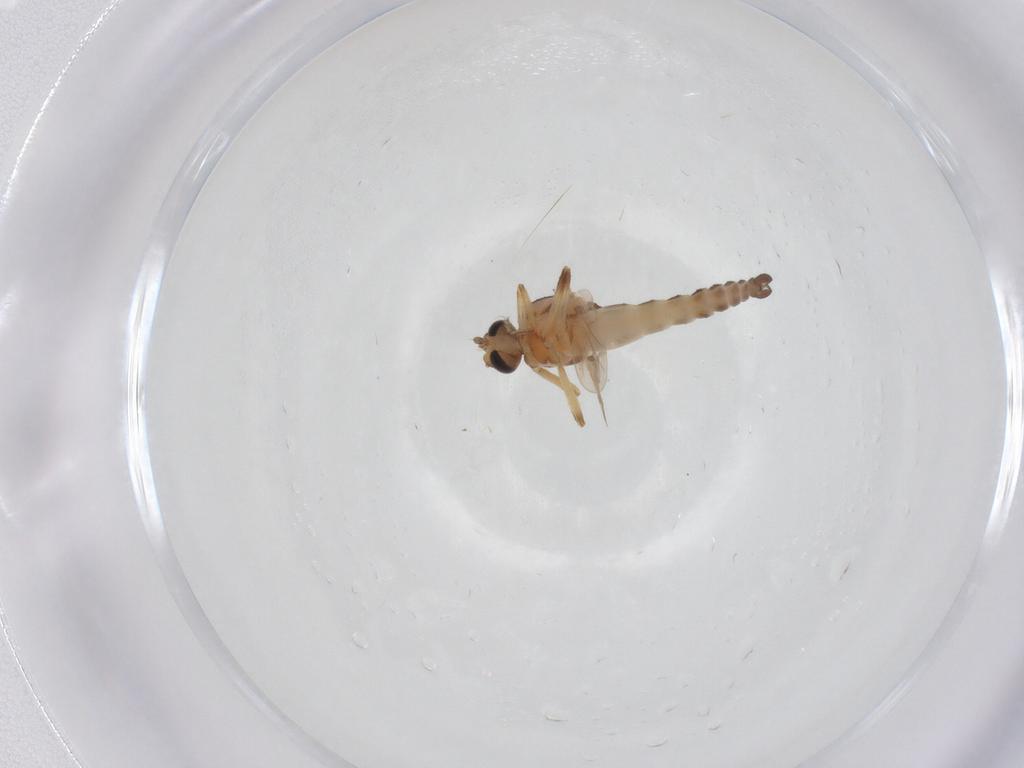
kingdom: Animalia
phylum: Arthropoda
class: Insecta
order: Diptera
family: Ceratopogonidae
